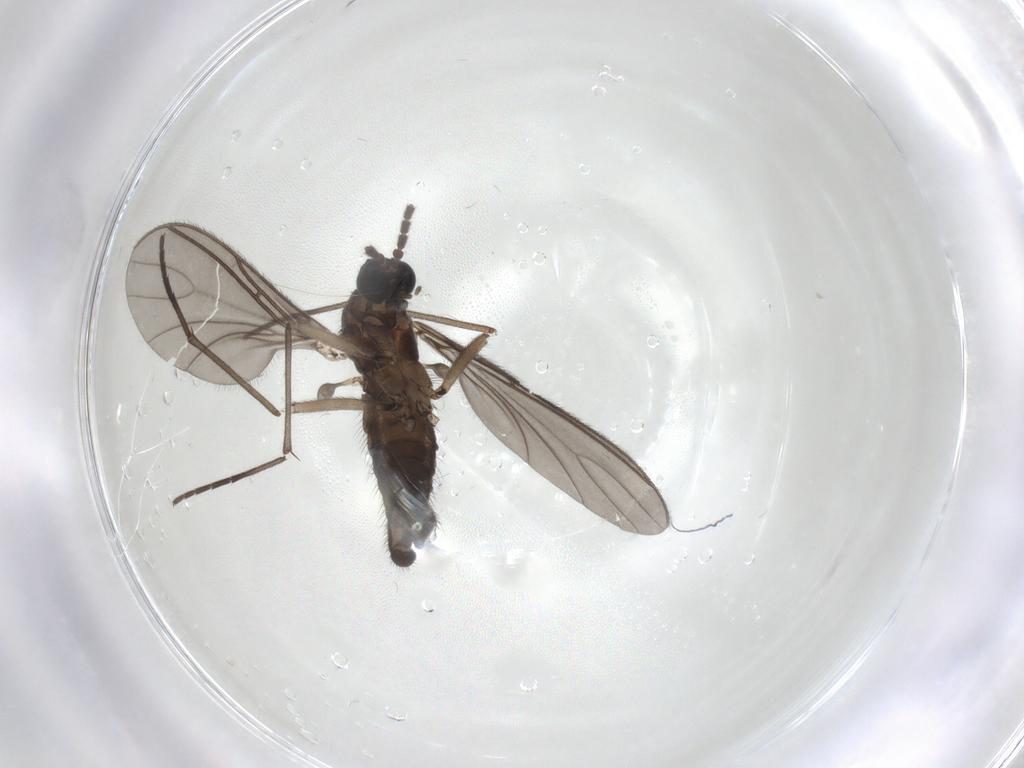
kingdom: Animalia
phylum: Arthropoda
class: Insecta
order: Diptera
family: Sciaridae
